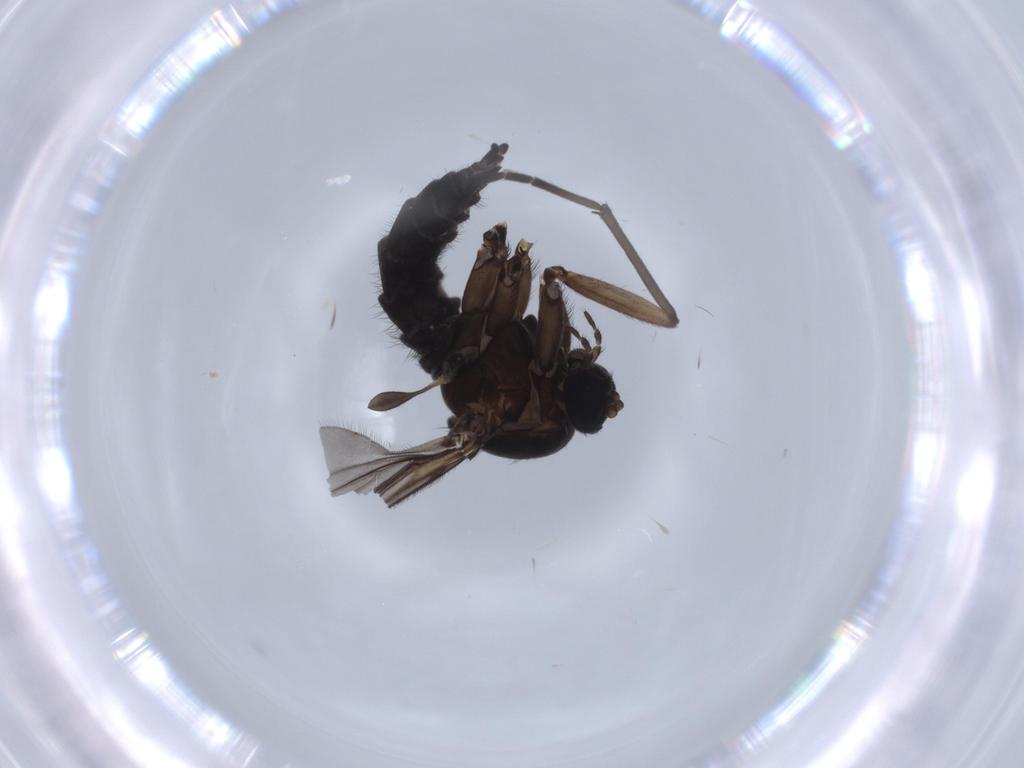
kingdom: Animalia
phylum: Arthropoda
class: Insecta
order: Diptera
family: Sciaridae
